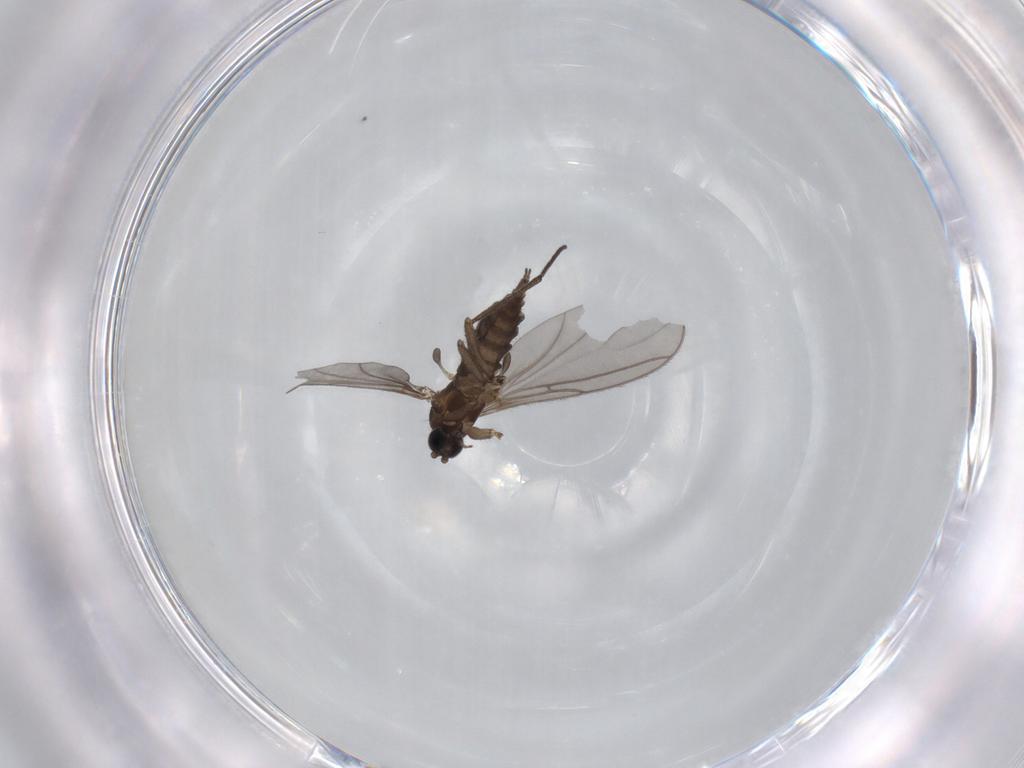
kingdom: Animalia
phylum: Arthropoda
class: Insecta
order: Diptera
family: Sciaridae
